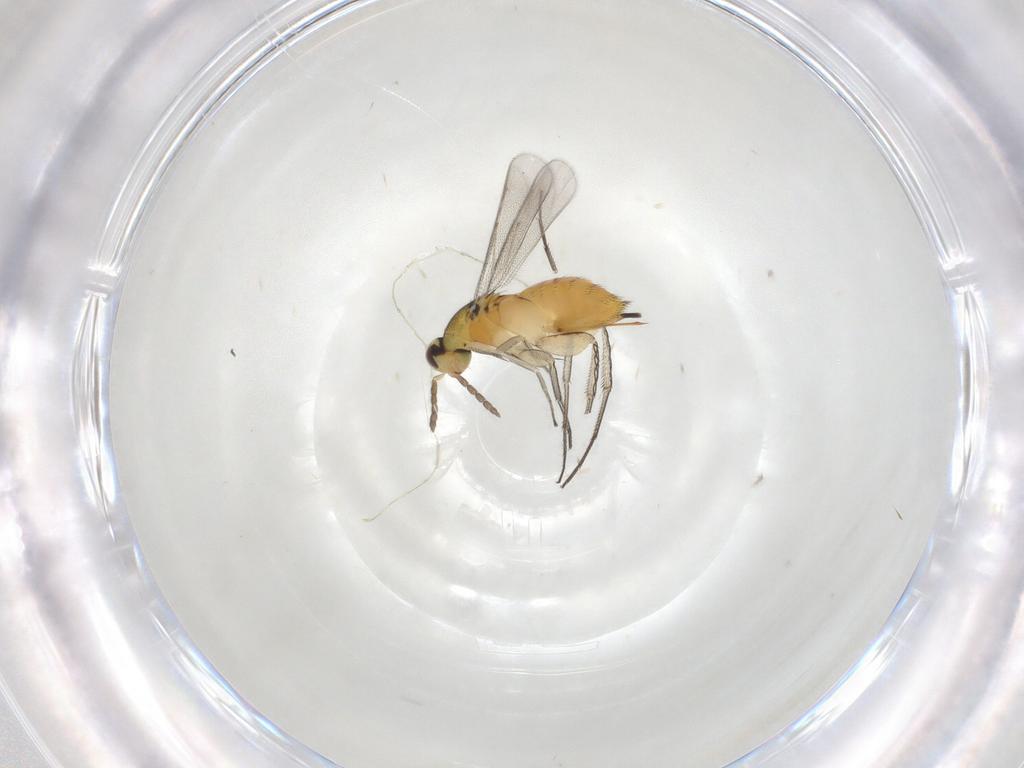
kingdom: Animalia
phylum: Arthropoda
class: Insecta
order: Hymenoptera
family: Eulophidae
